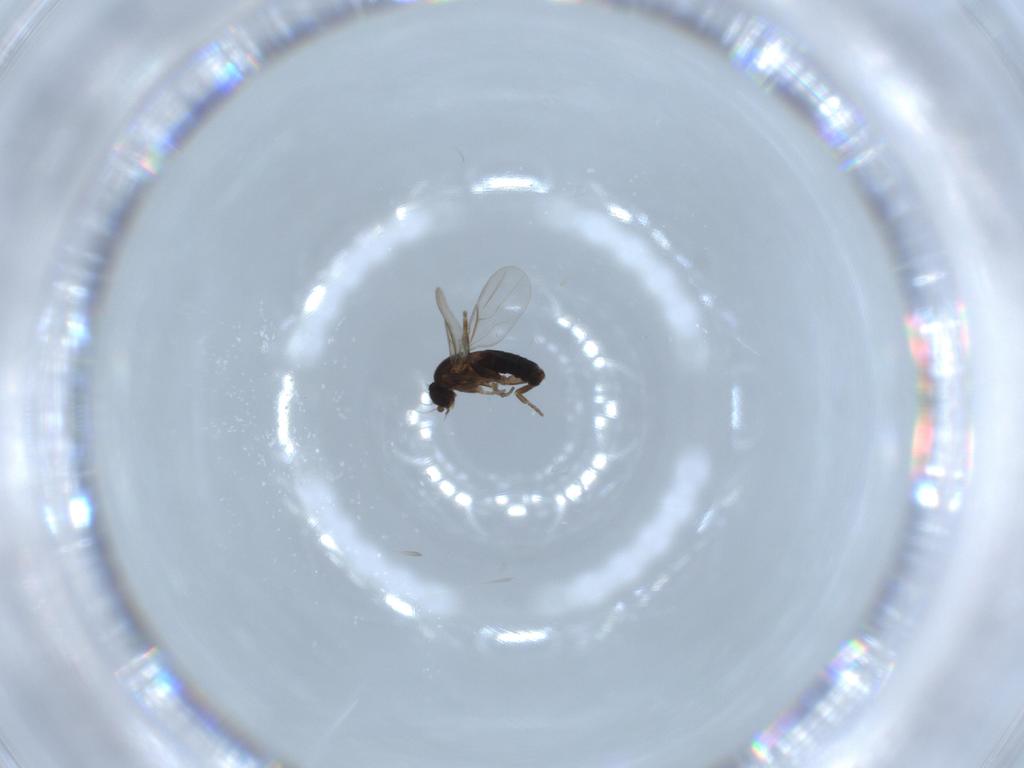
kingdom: Animalia
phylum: Arthropoda
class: Insecta
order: Diptera
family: Phoridae
